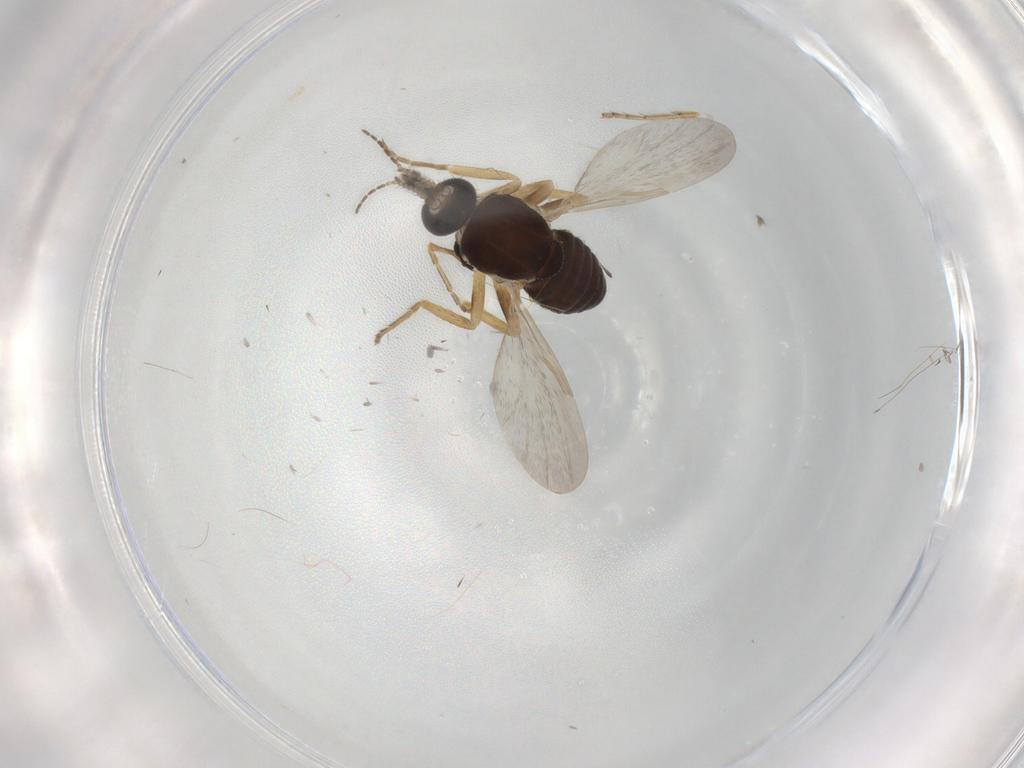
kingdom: Animalia
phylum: Arthropoda
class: Insecta
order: Diptera
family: Ceratopogonidae
